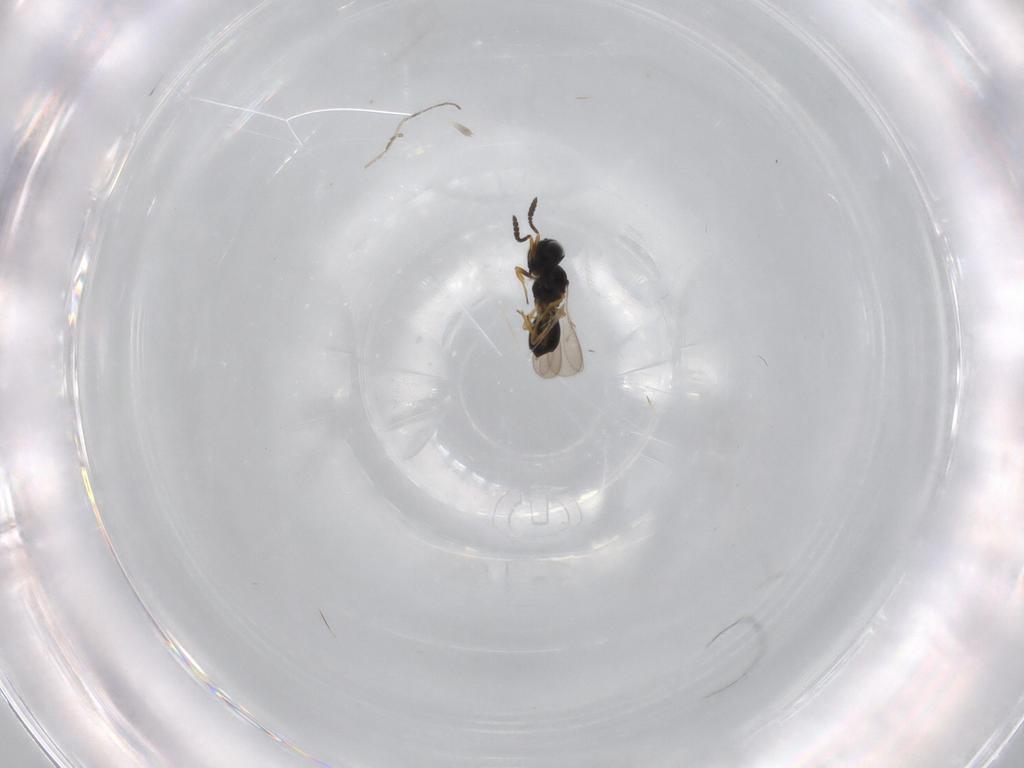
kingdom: Animalia
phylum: Arthropoda
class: Insecta
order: Hymenoptera
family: Scelionidae
